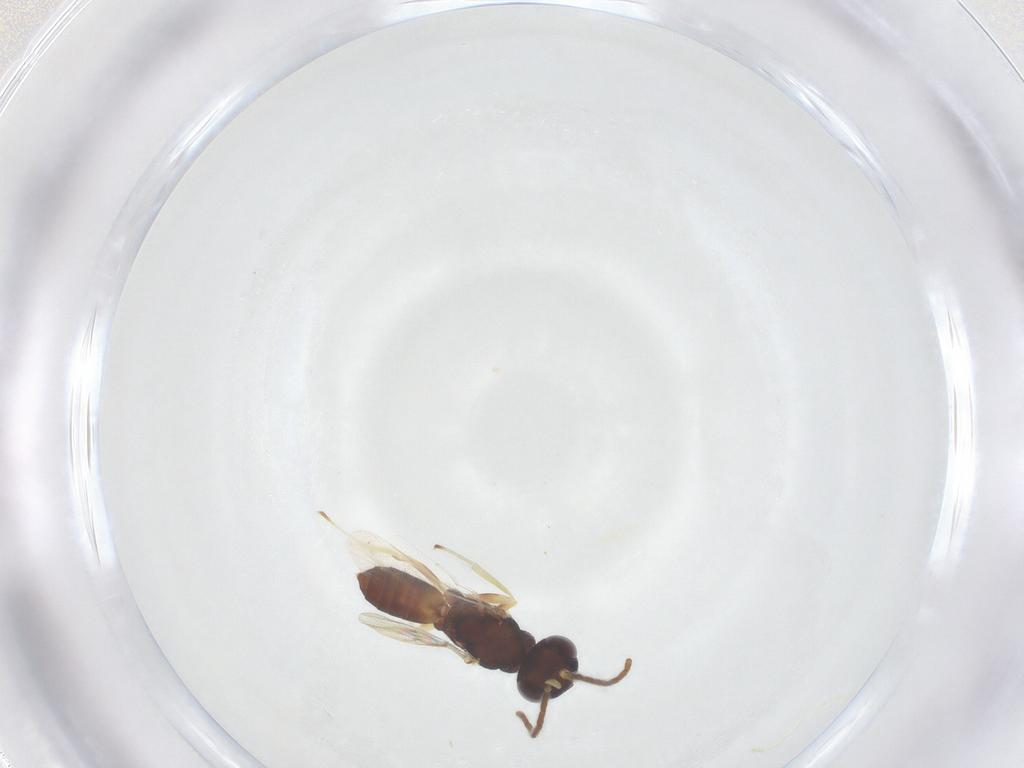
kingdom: Animalia
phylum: Arthropoda
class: Insecta
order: Hymenoptera
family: Eupelmidae
